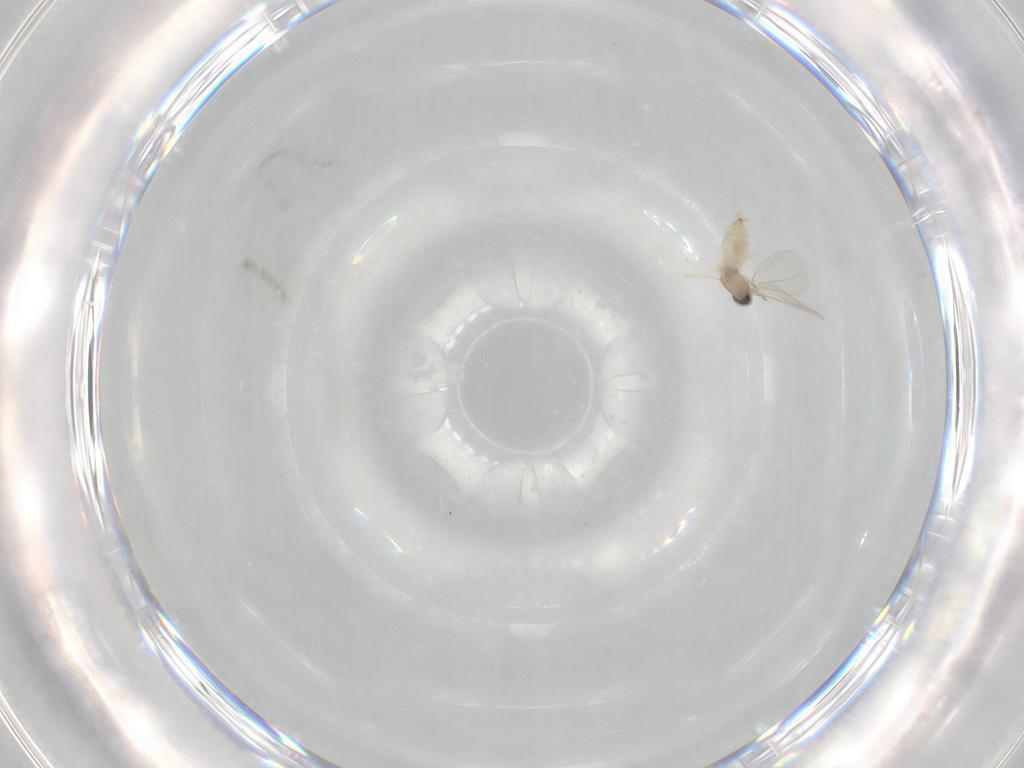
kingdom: Animalia
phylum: Arthropoda
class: Insecta
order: Diptera
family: Cecidomyiidae
